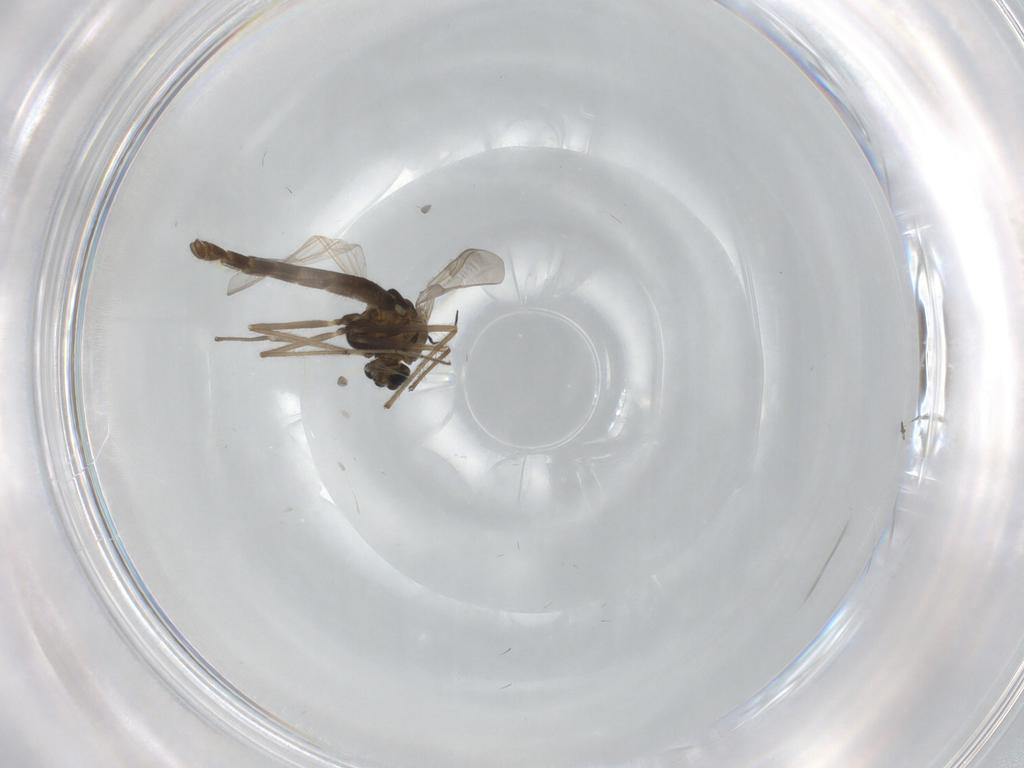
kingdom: Animalia
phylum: Arthropoda
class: Insecta
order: Diptera
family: Chironomidae
